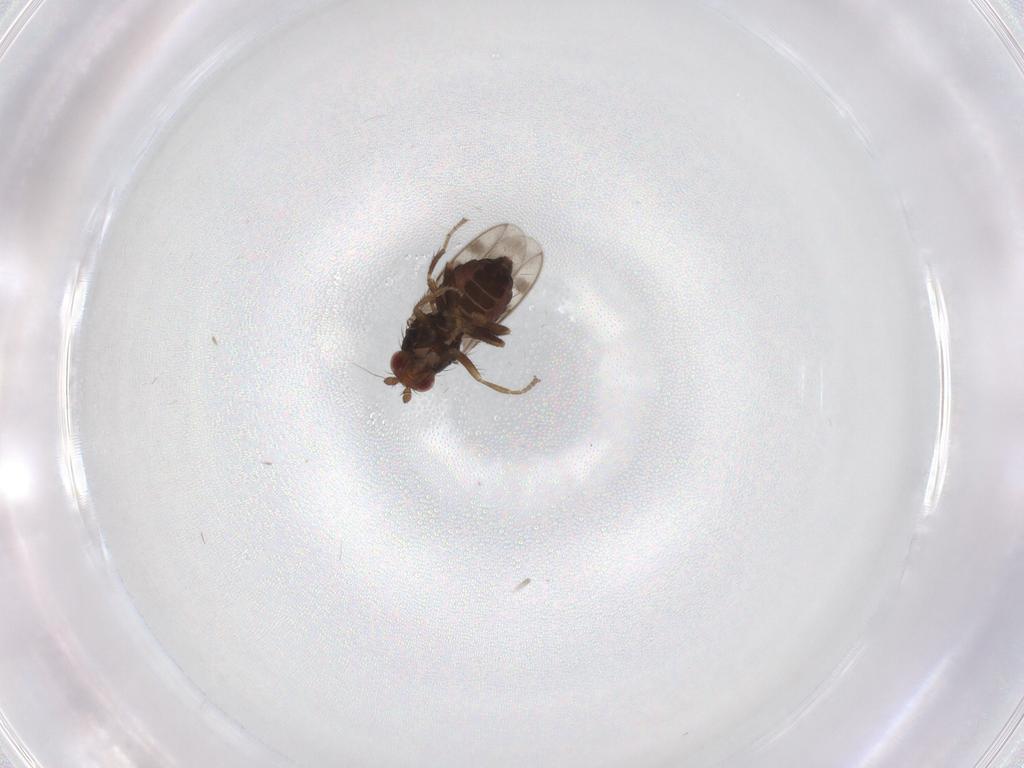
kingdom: Animalia
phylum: Arthropoda
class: Insecta
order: Diptera
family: Sphaeroceridae
